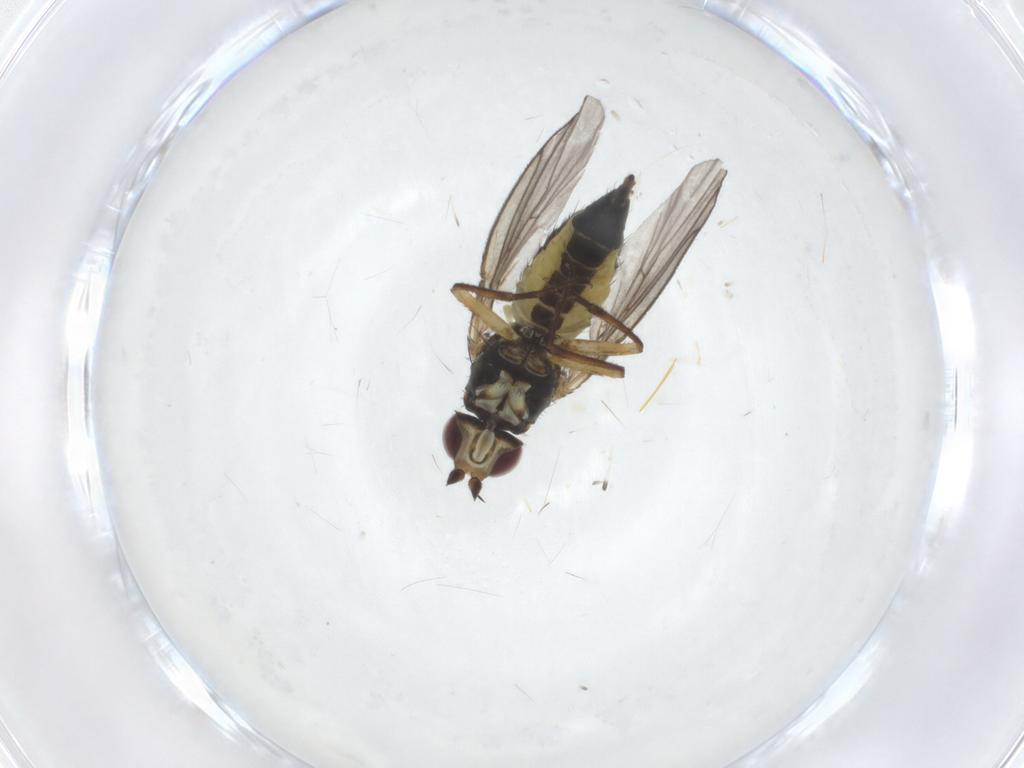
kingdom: Animalia
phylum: Arthropoda
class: Insecta
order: Diptera
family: Agromyzidae
